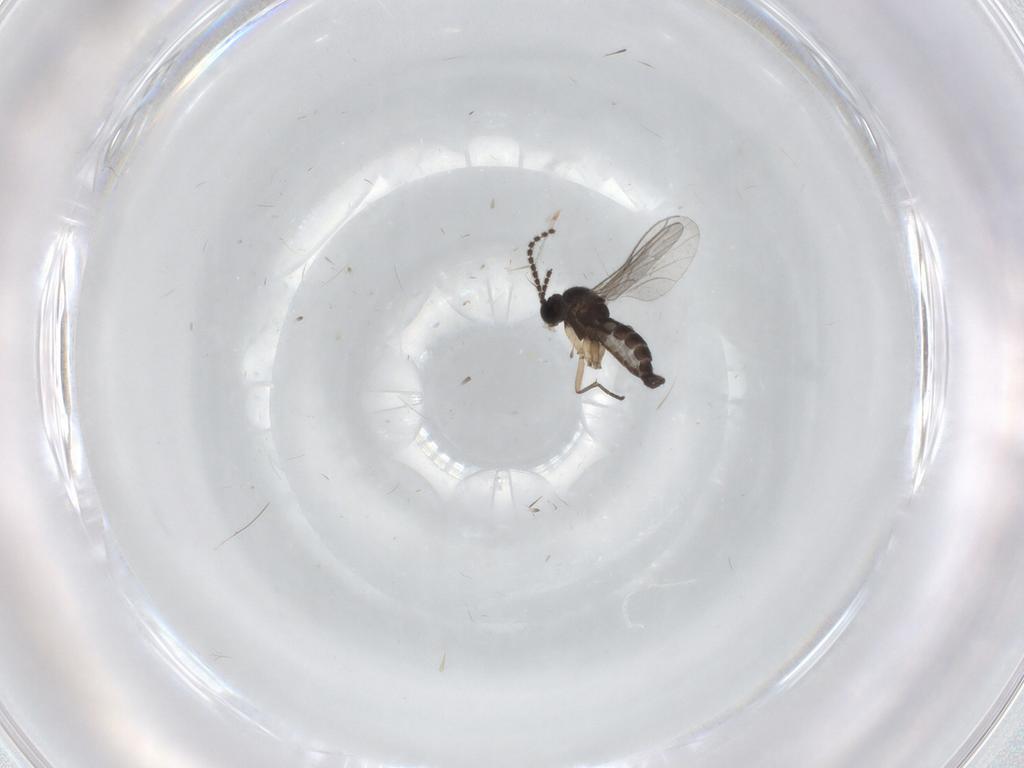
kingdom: Animalia
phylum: Arthropoda
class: Insecta
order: Diptera
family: Sciaridae
